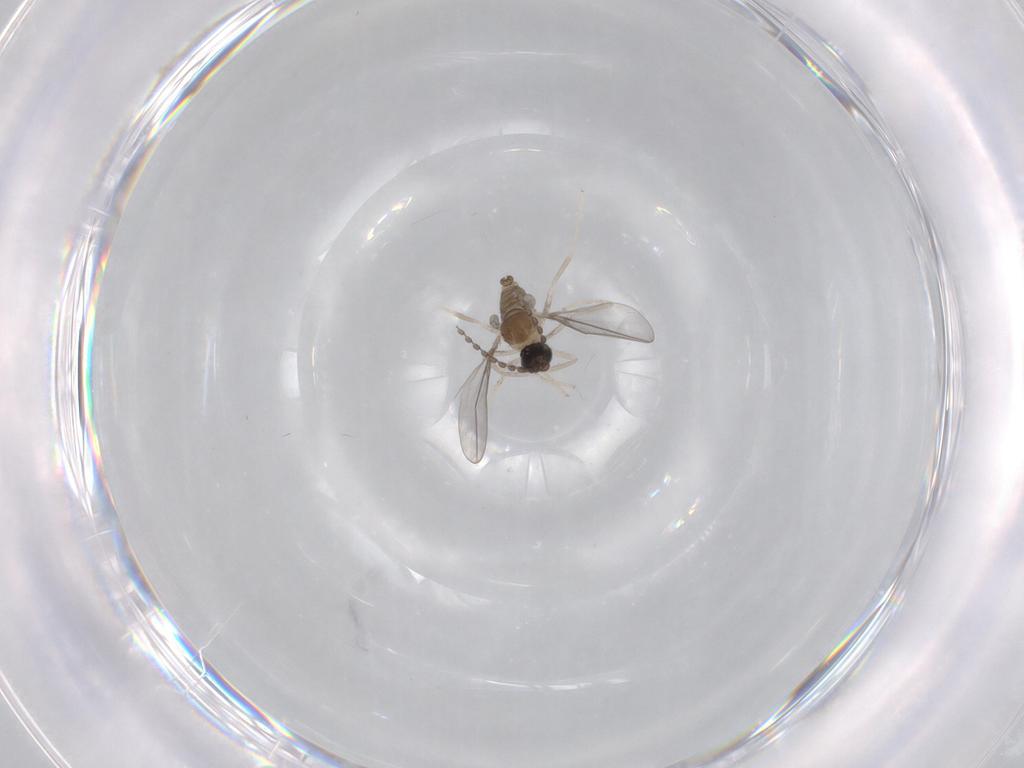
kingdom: Animalia
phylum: Arthropoda
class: Insecta
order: Diptera
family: Cecidomyiidae
